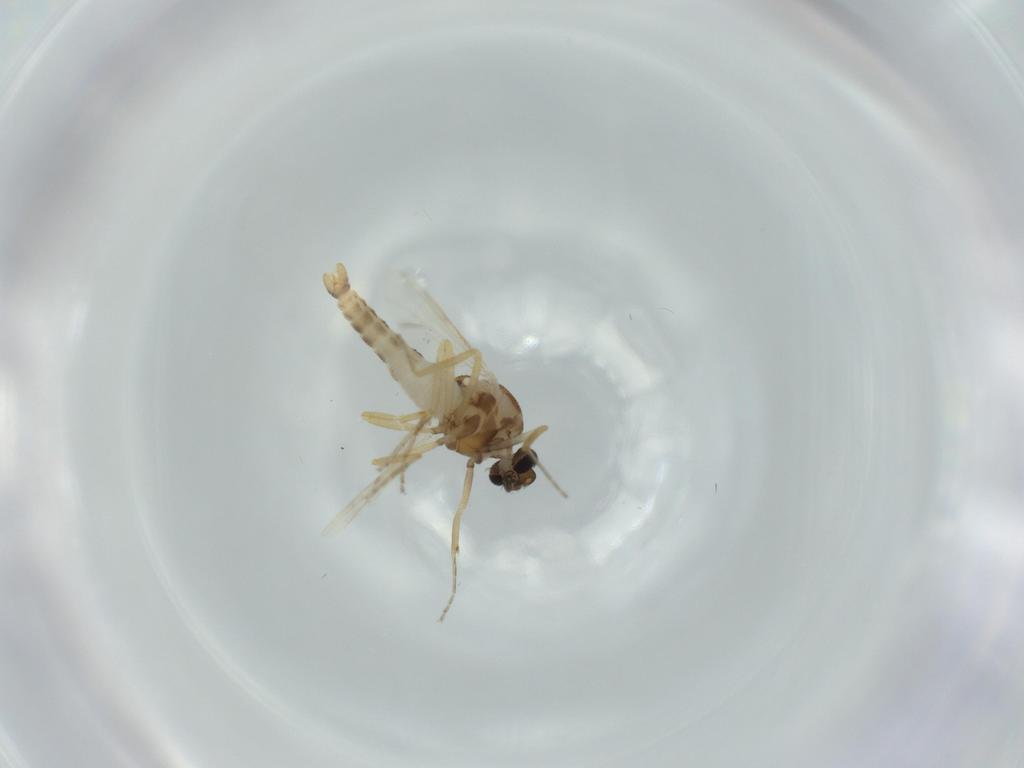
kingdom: Animalia
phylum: Arthropoda
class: Insecta
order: Diptera
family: Ceratopogonidae
